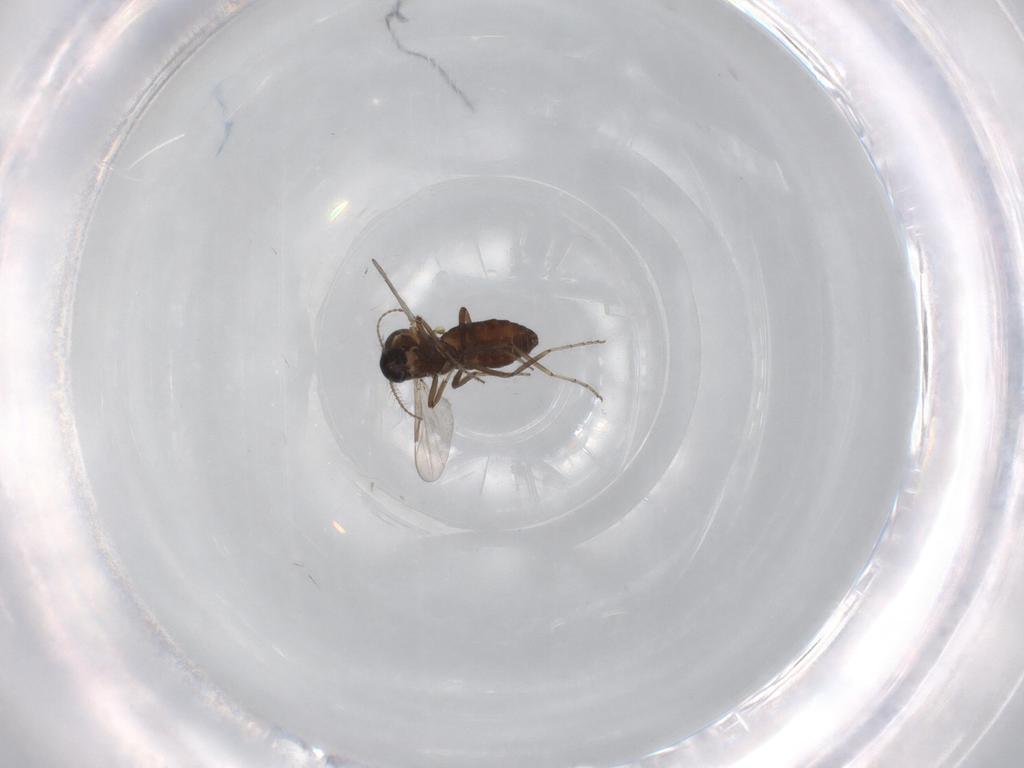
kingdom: Animalia
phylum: Arthropoda
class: Insecta
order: Diptera
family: Ceratopogonidae
